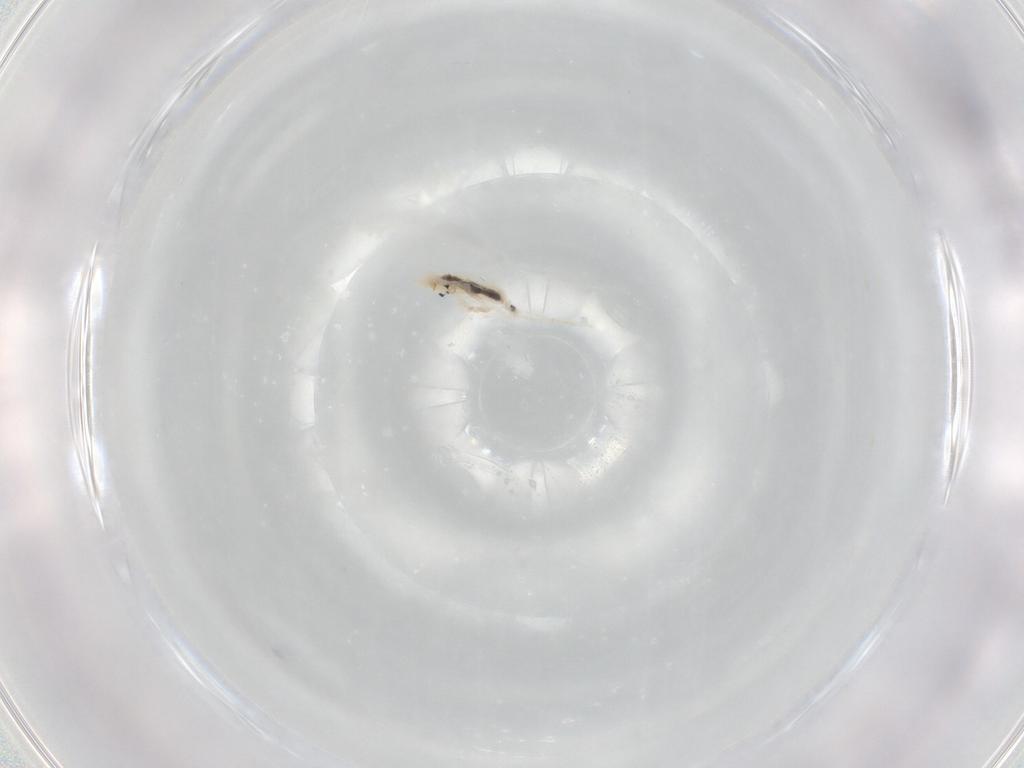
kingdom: Animalia
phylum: Arthropoda
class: Collembola
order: Entomobryomorpha
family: Entomobryidae
